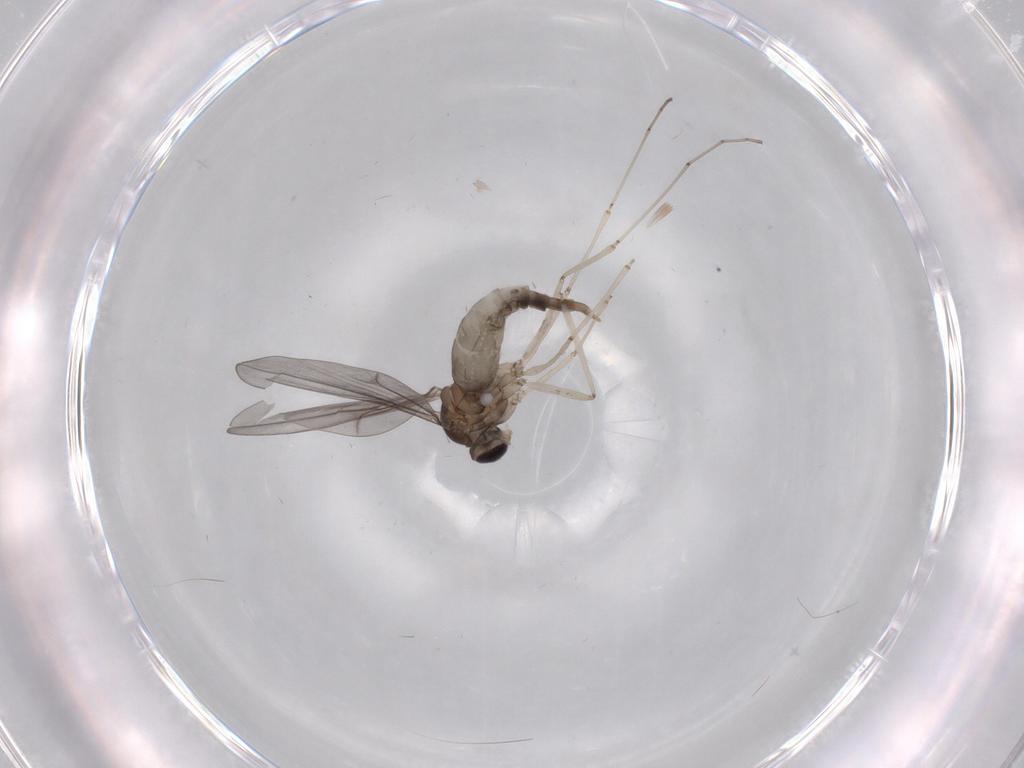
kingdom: Animalia
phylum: Arthropoda
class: Insecta
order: Diptera
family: Cecidomyiidae
